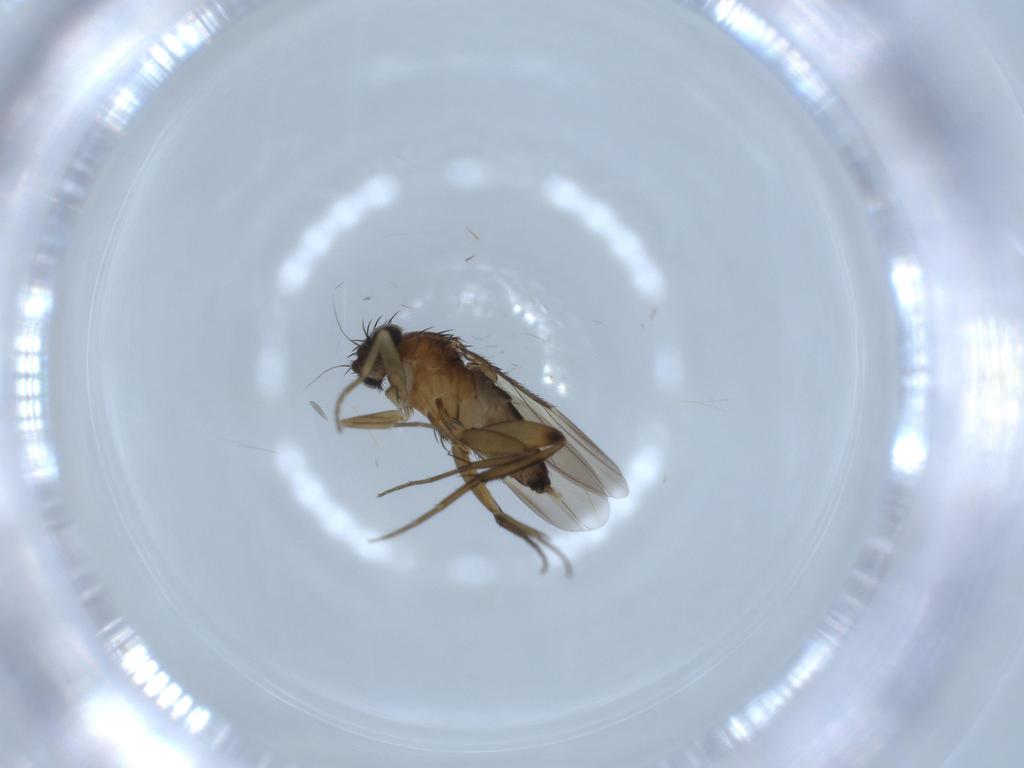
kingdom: Animalia
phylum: Arthropoda
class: Insecta
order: Diptera
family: Phoridae
